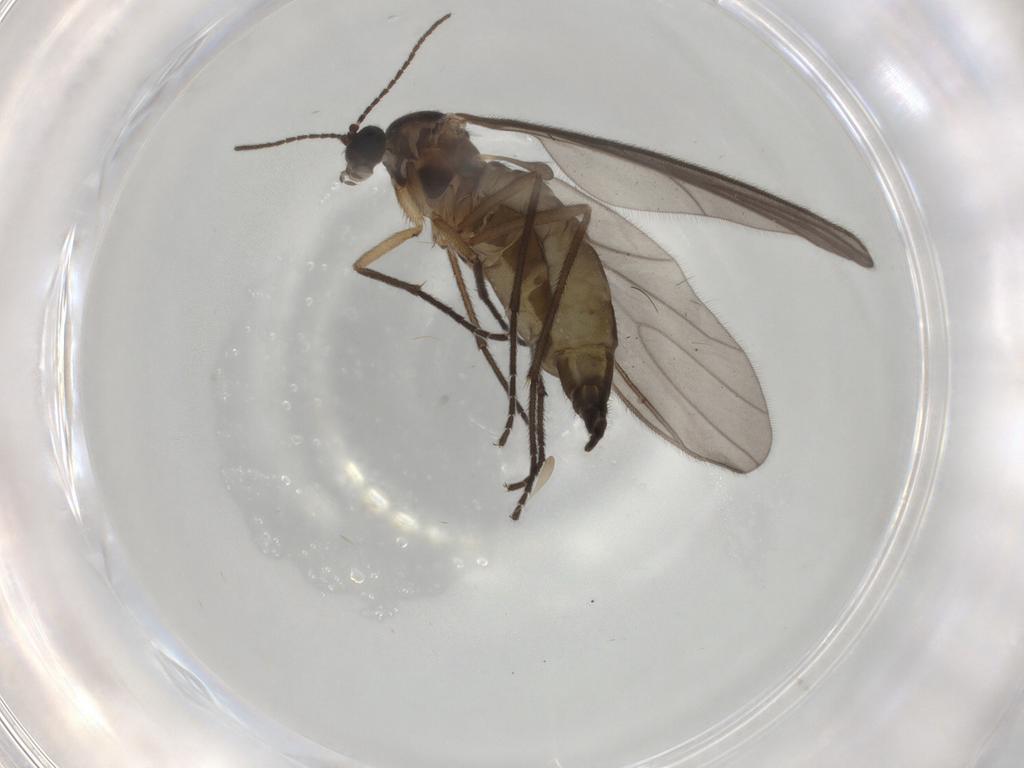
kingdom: Animalia
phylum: Arthropoda
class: Insecta
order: Diptera
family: Sciaridae
